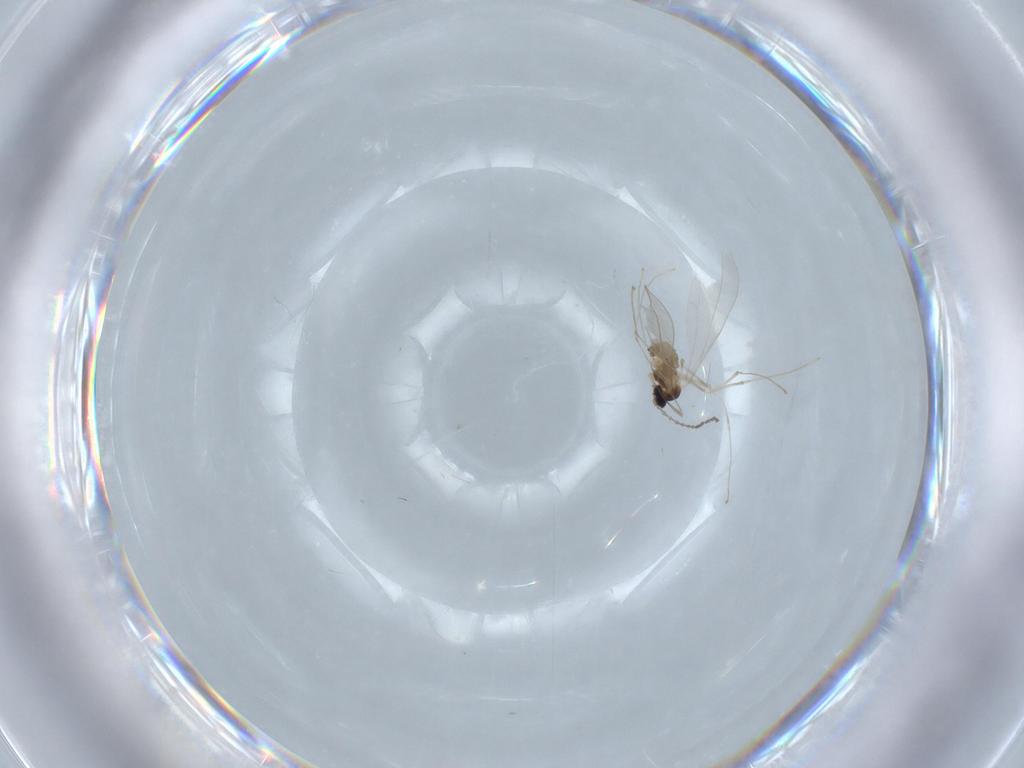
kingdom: Animalia
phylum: Arthropoda
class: Insecta
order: Diptera
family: Cecidomyiidae
